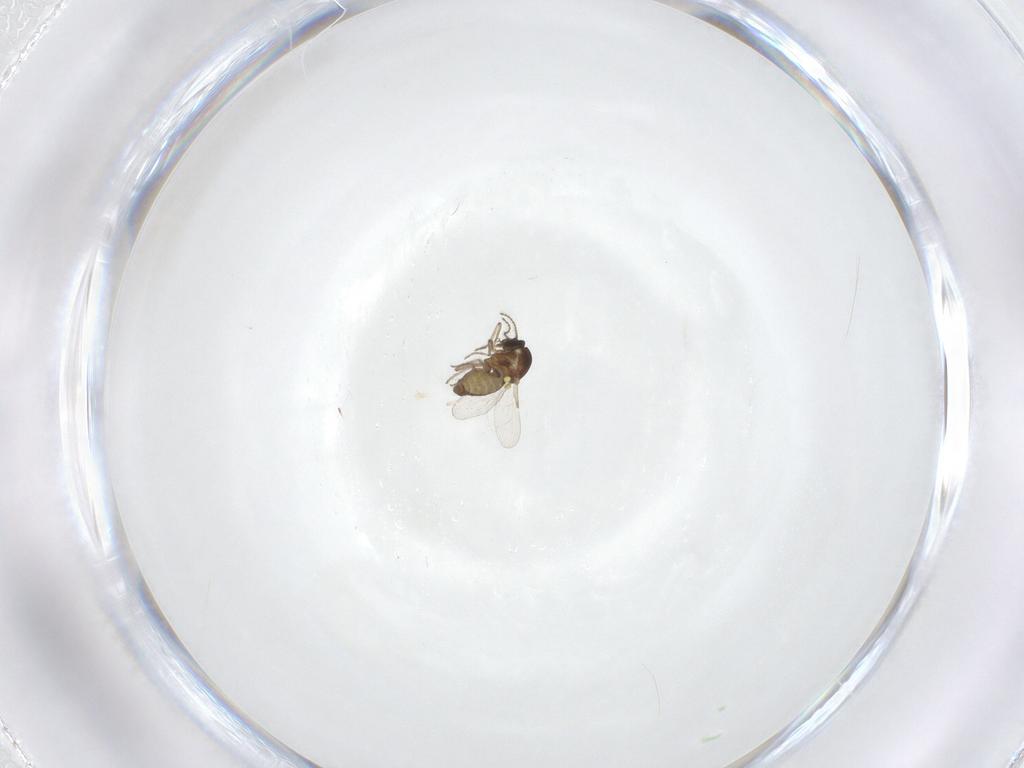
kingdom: Animalia
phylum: Arthropoda
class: Insecta
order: Diptera
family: Ceratopogonidae
